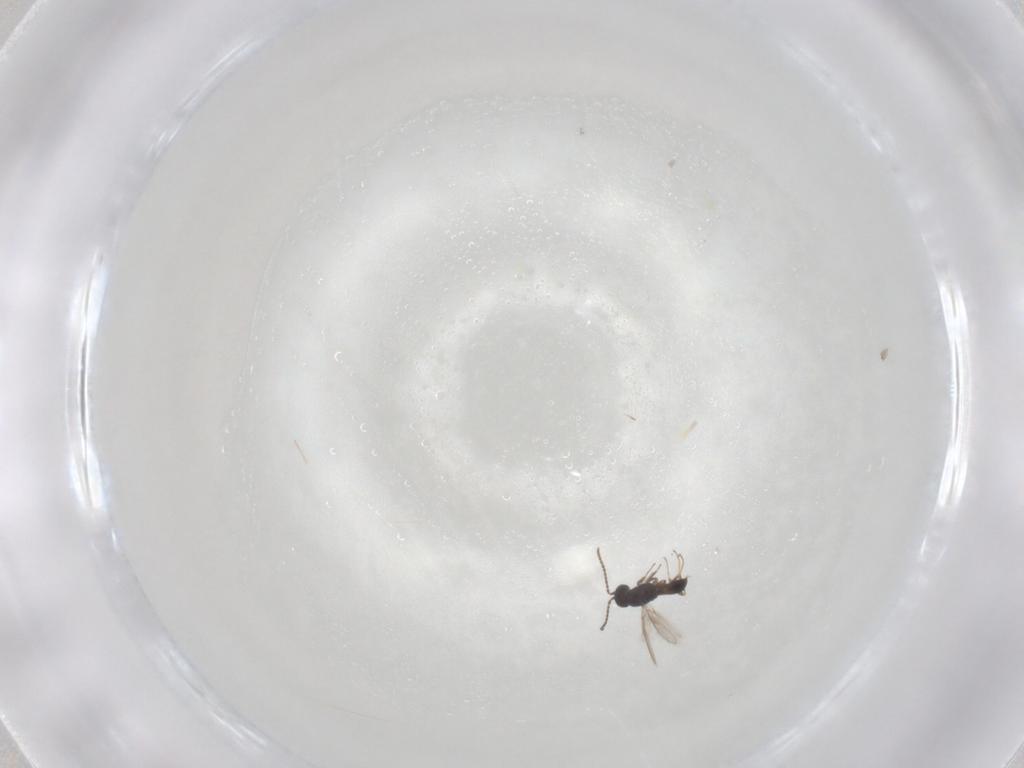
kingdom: Animalia
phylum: Arthropoda
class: Insecta
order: Hymenoptera
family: Scelionidae
